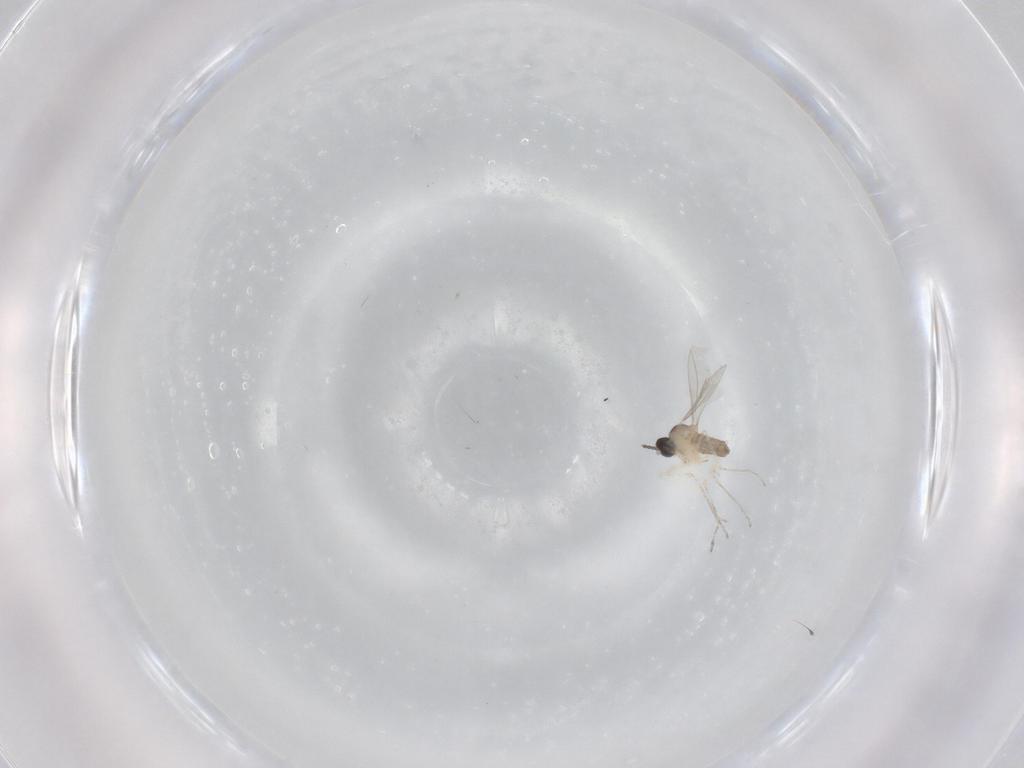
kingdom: Animalia
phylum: Arthropoda
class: Insecta
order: Diptera
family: Cecidomyiidae
